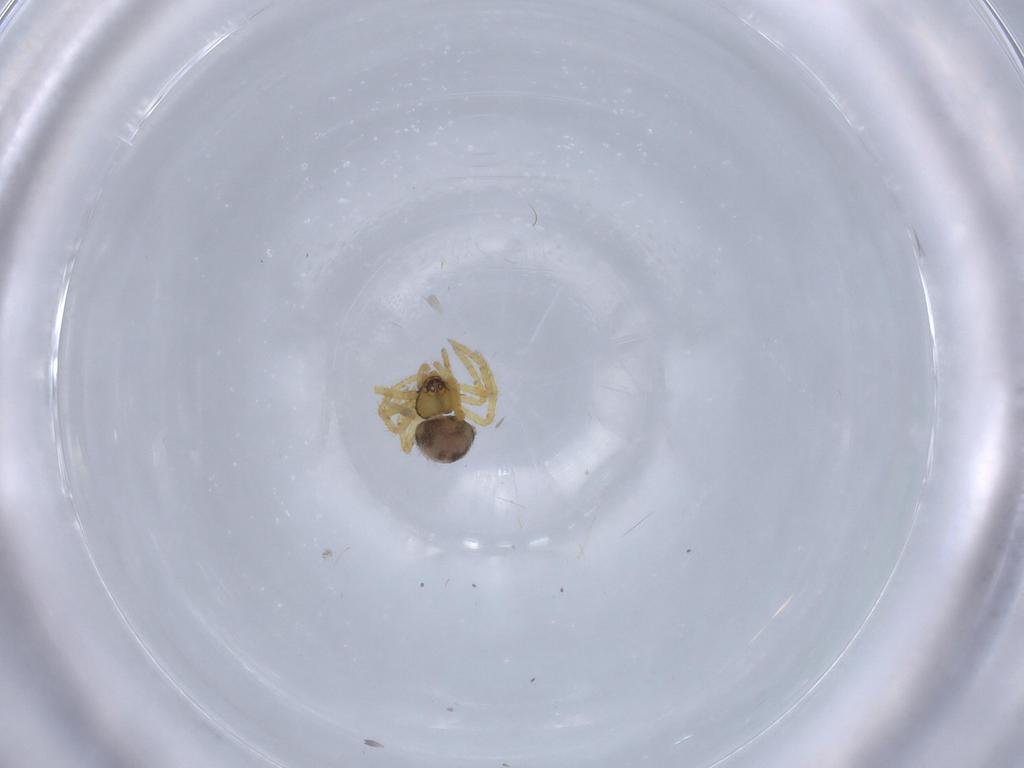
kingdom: Animalia
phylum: Arthropoda
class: Arachnida
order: Araneae
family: Theridiidae
